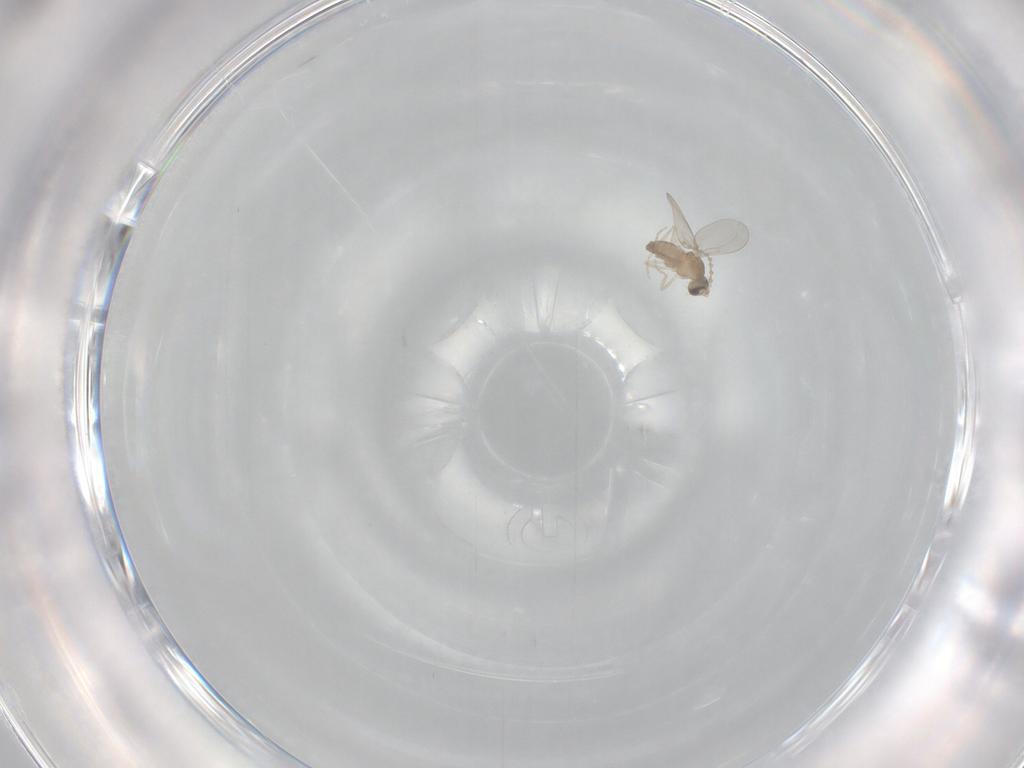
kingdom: Animalia
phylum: Arthropoda
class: Insecta
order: Diptera
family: Cecidomyiidae
